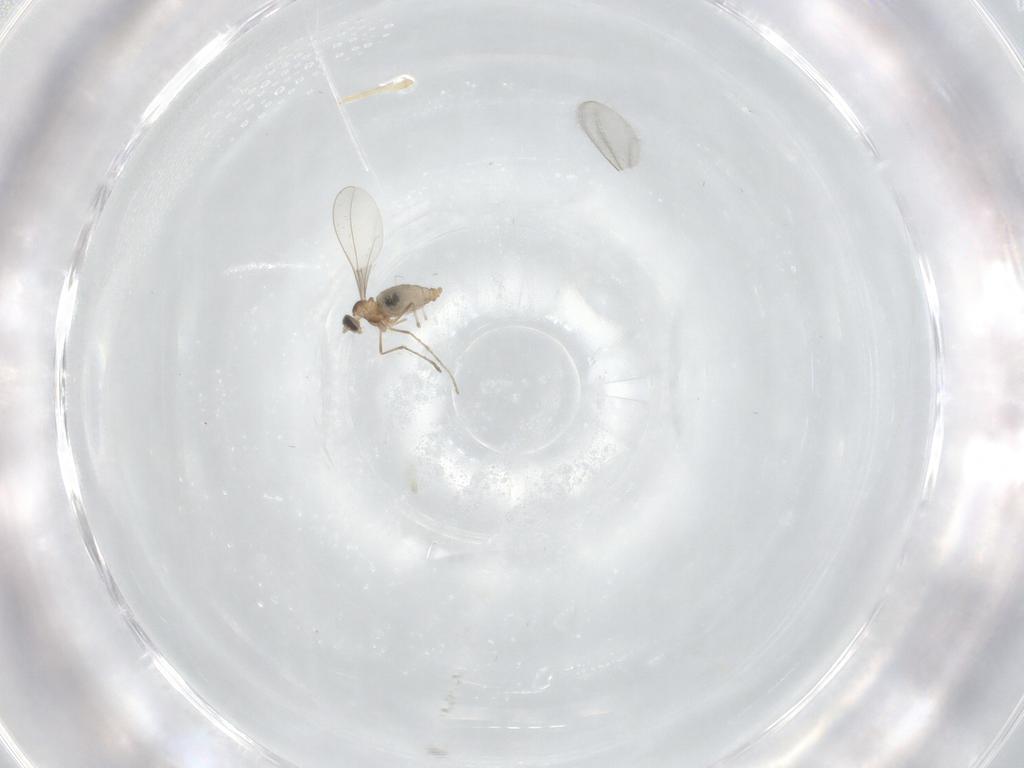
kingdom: Animalia
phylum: Arthropoda
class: Insecta
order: Diptera
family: Cecidomyiidae
